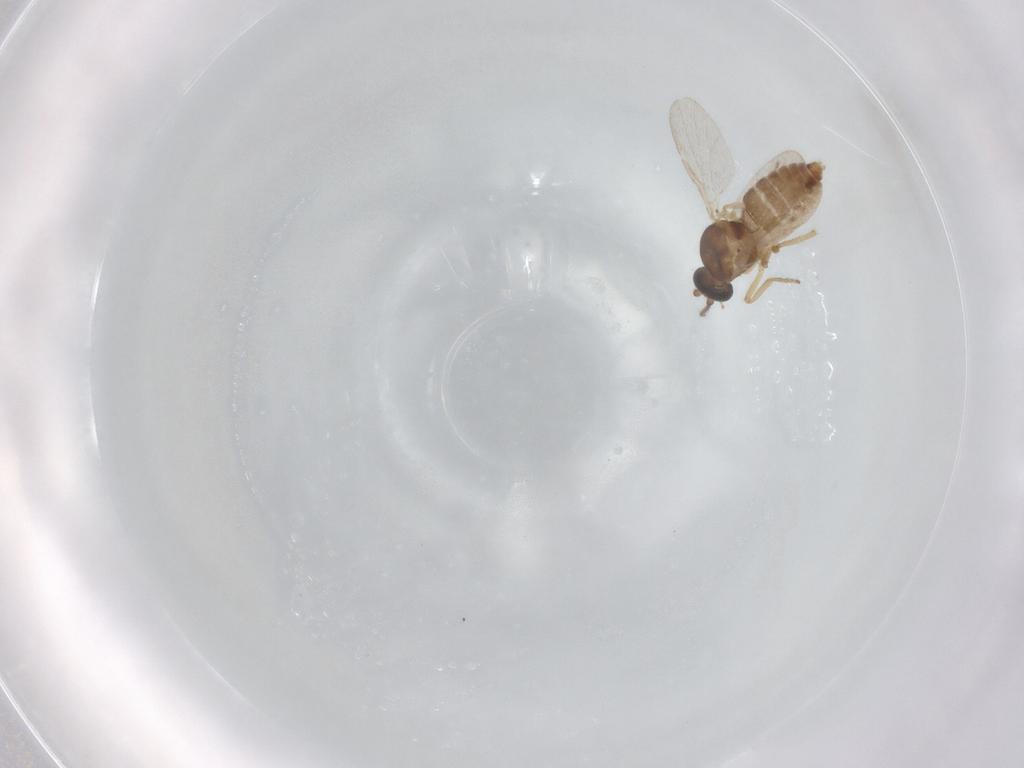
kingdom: Animalia
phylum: Arthropoda
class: Insecta
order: Diptera
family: Ceratopogonidae
